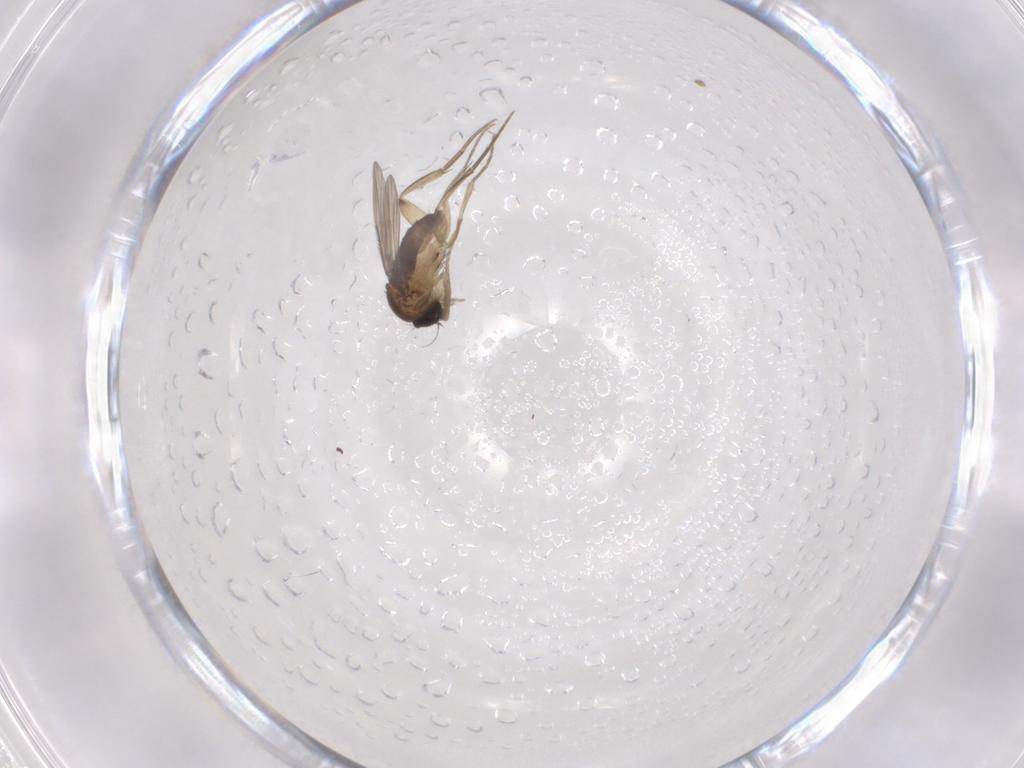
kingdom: Animalia
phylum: Arthropoda
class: Insecta
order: Diptera
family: Phoridae
